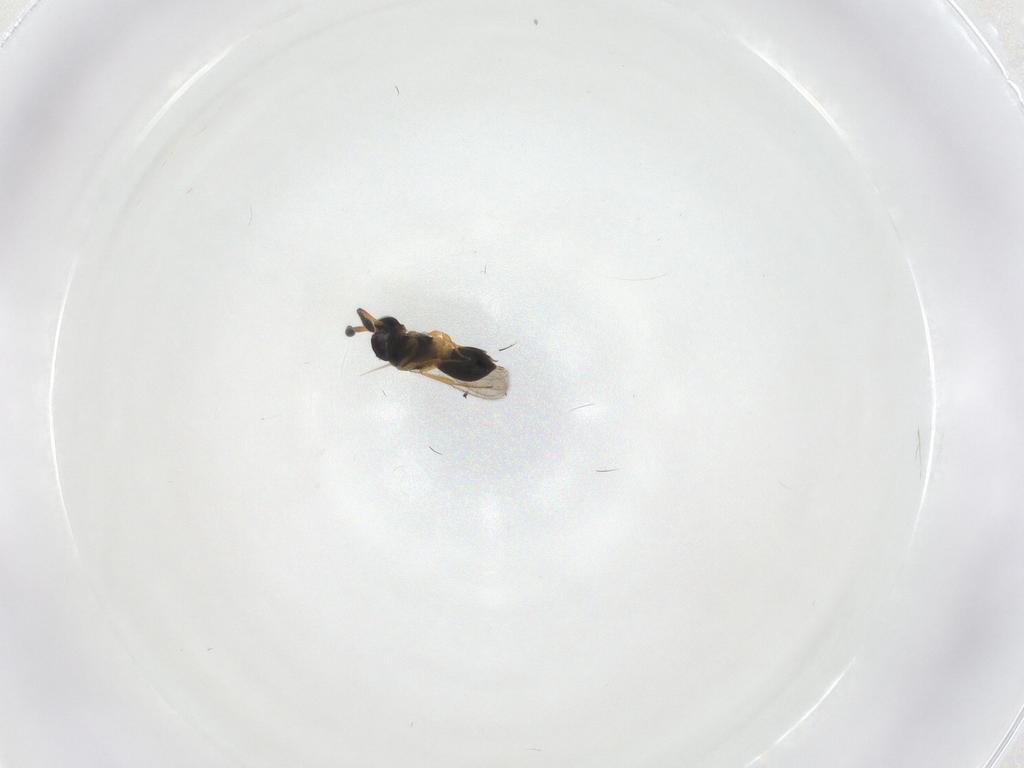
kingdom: Animalia
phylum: Arthropoda
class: Insecta
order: Hymenoptera
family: Scelionidae
